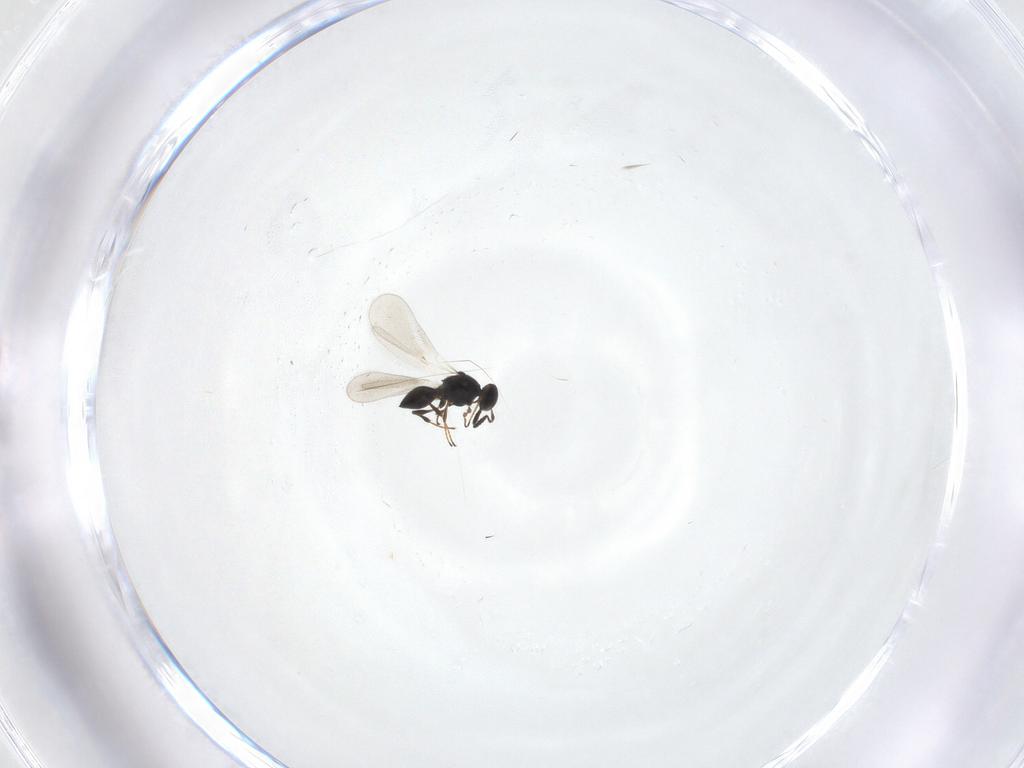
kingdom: Animalia
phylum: Arthropoda
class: Insecta
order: Hymenoptera
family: Platygastridae
